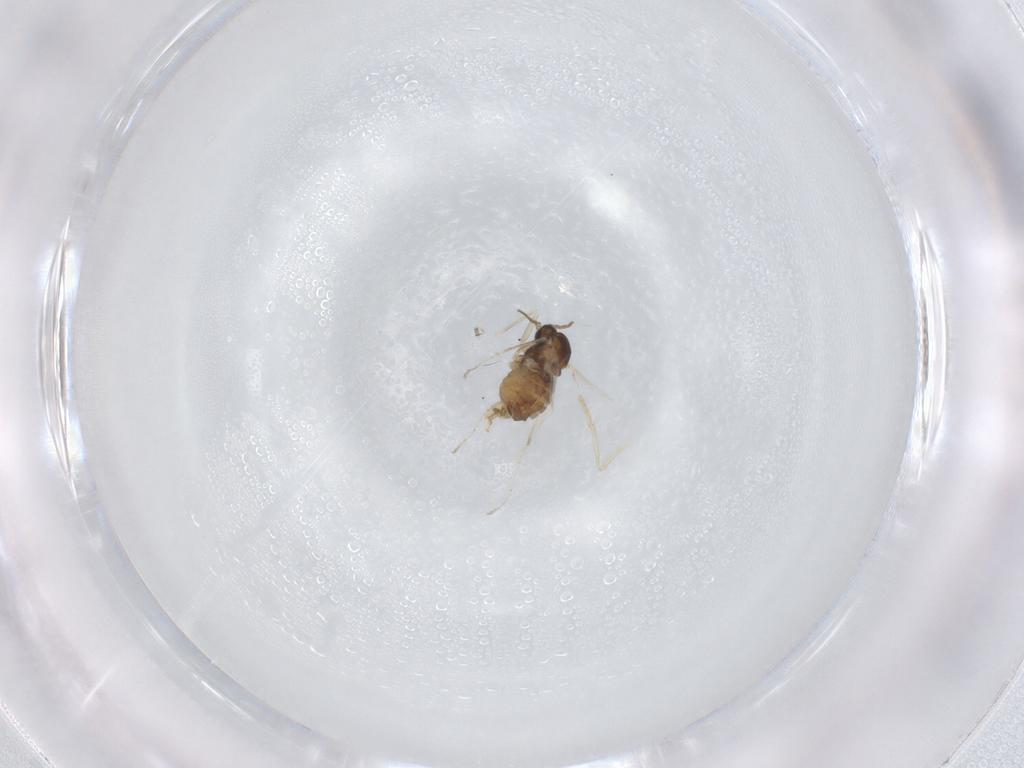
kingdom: Animalia
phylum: Arthropoda
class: Insecta
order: Diptera
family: Cecidomyiidae
